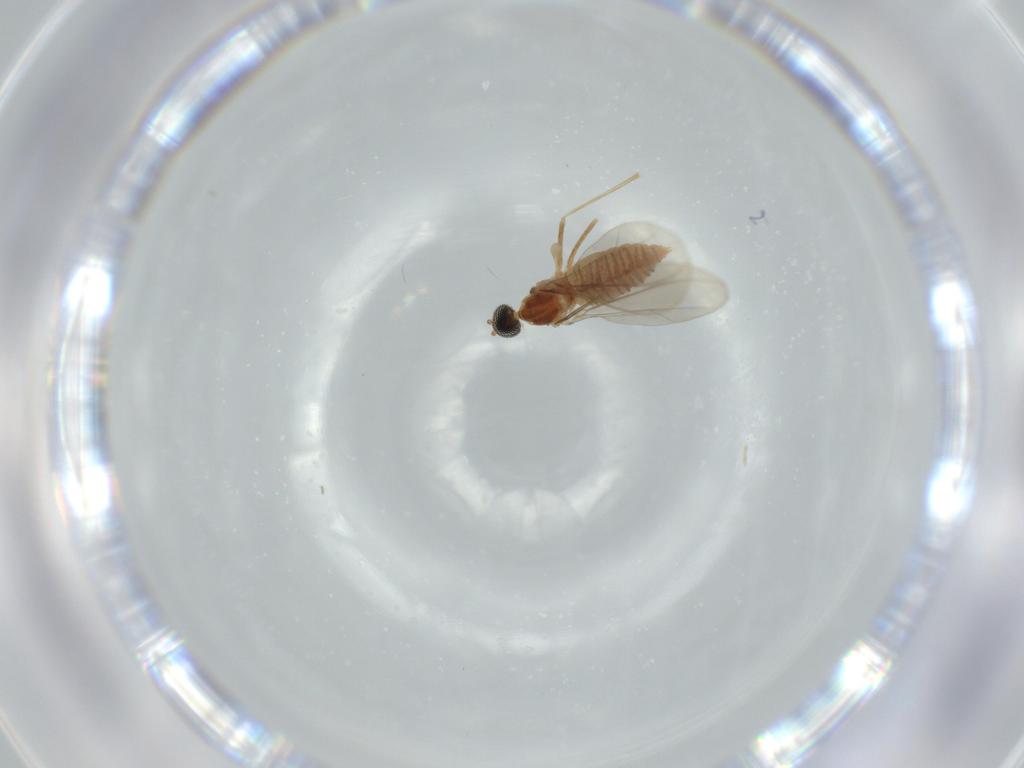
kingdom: Animalia
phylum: Arthropoda
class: Insecta
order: Diptera
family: Cecidomyiidae
